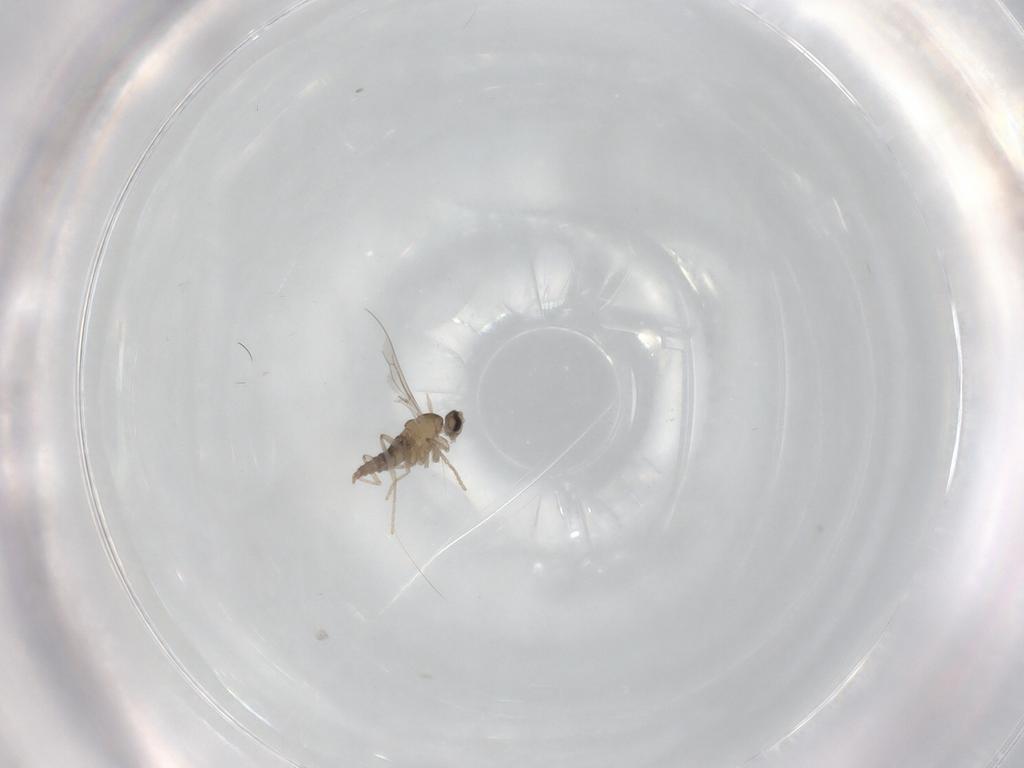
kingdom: Animalia
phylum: Arthropoda
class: Insecta
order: Diptera
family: Cecidomyiidae
